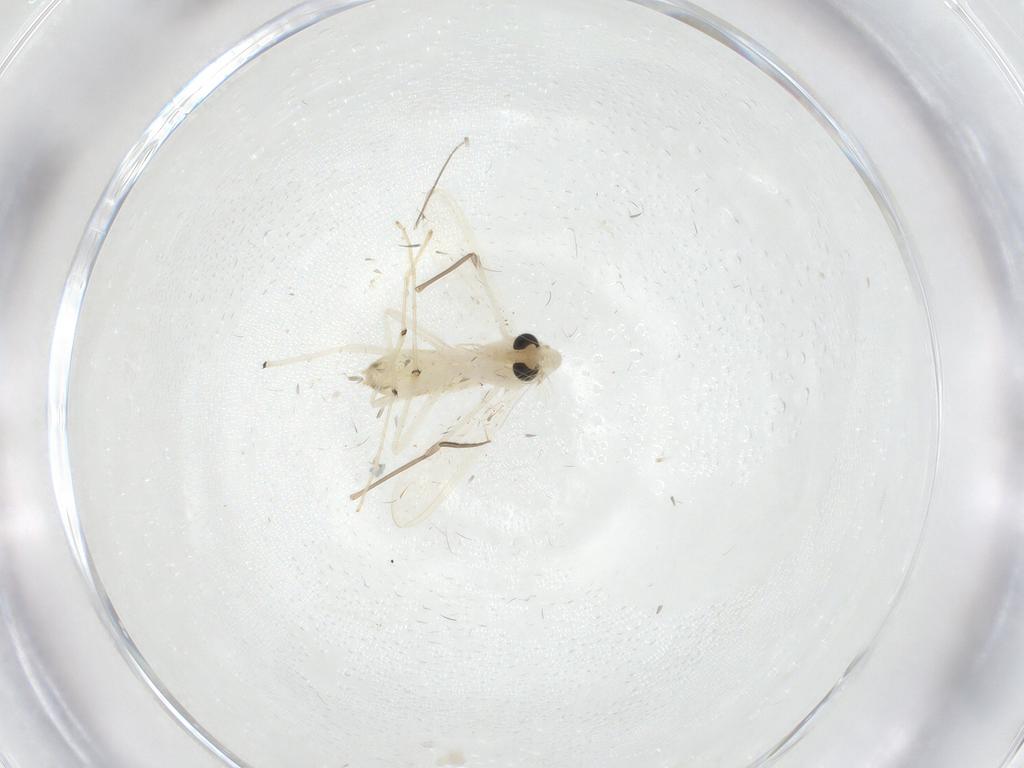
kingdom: Animalia
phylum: Arthropoda
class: Insecta
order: Diptera
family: Chironomidae
